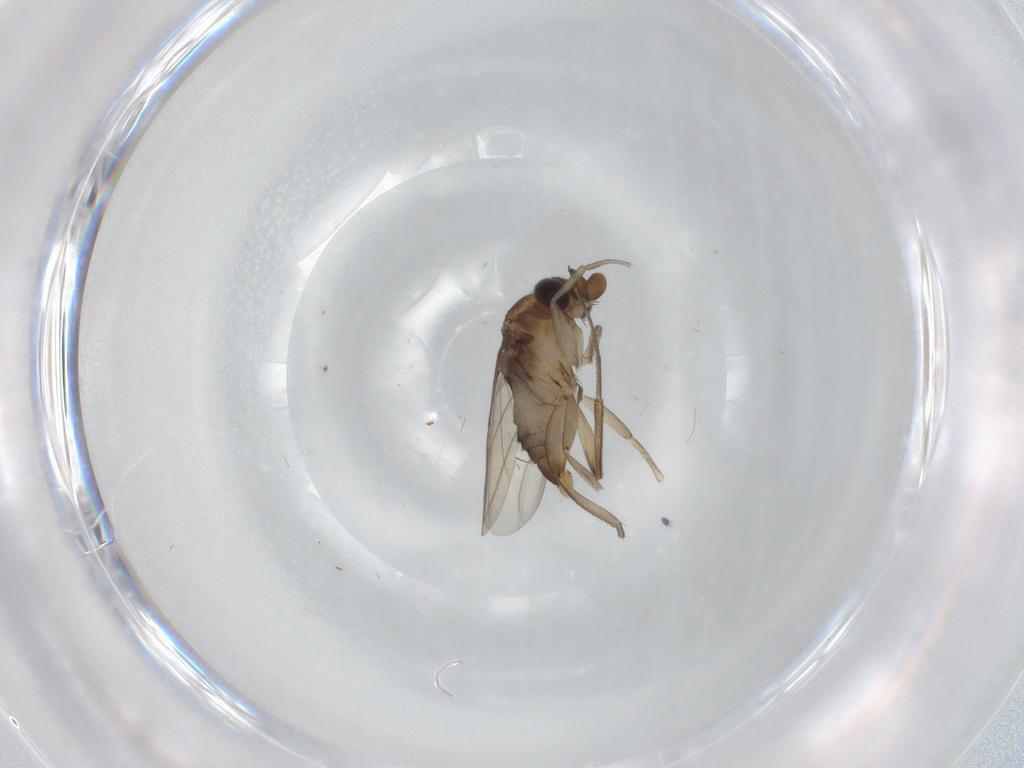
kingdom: Animalia
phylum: Arthropoda
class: Insecta
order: Diptera
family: Phoridae
